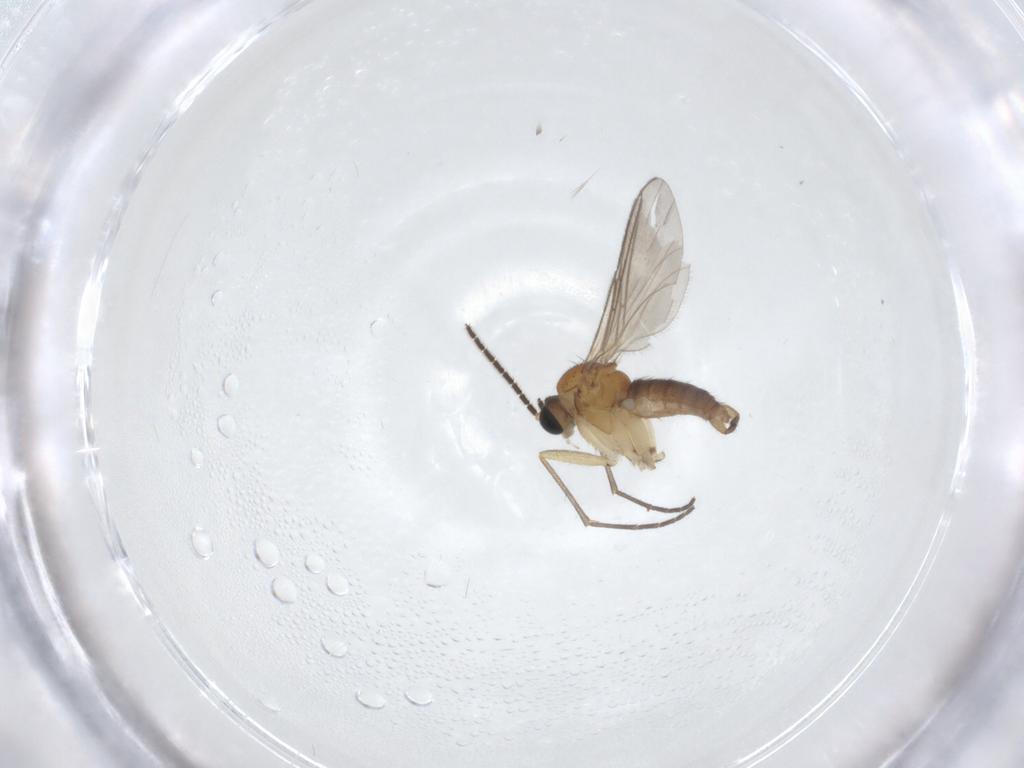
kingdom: Animalia
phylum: Arthropoda
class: Insecta
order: Diptera
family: Sciaridae
